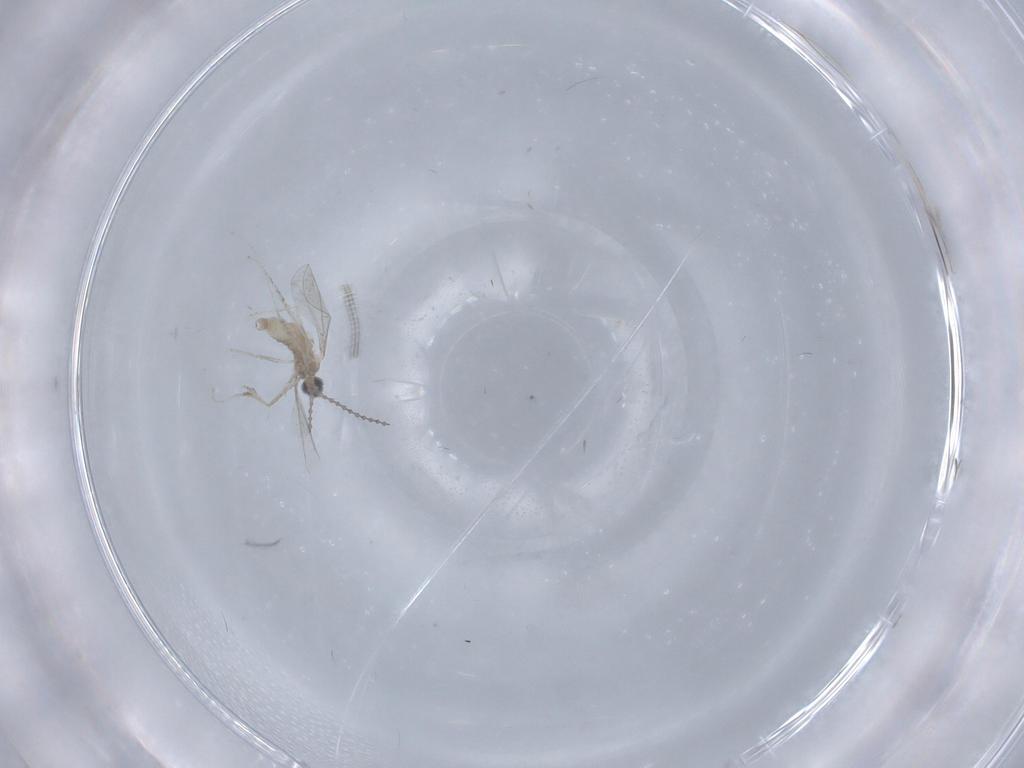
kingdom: Animalia
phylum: Arthropoda
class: Insecta
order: Diptera
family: Chironomidae
